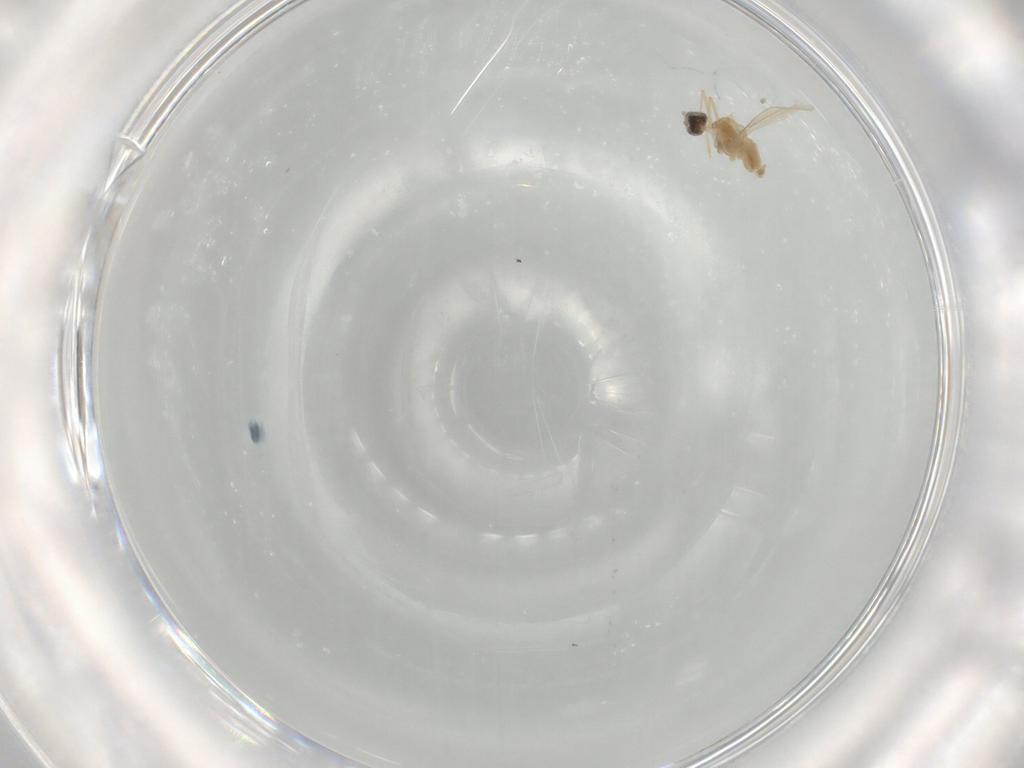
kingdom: Animalia
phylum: Arthropoda
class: Insecta
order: Diptera
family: Cecidomyiidae
